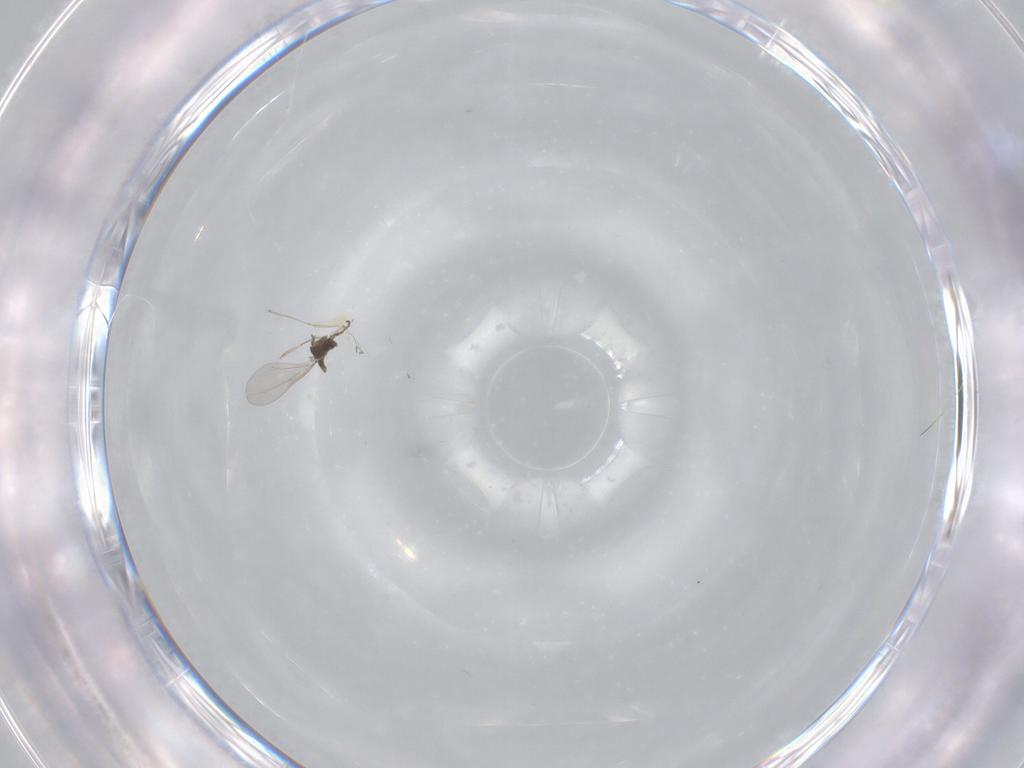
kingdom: Animalia
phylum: Arthropoda
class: Insecta
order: Diptera
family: Cecidomyiidae
